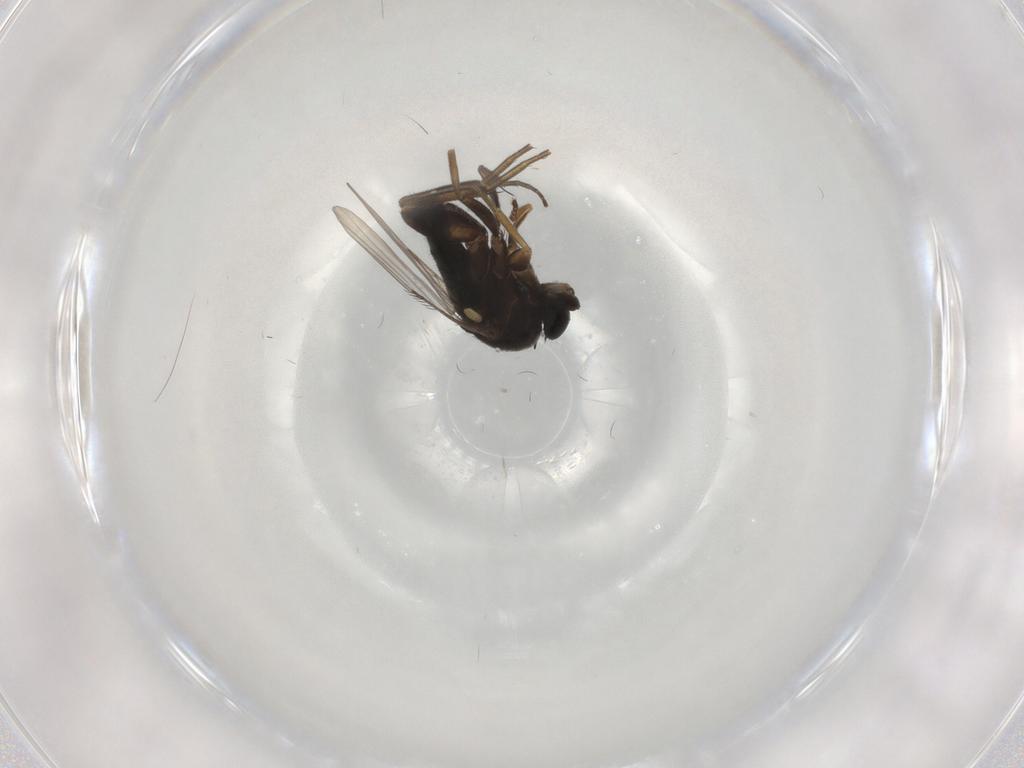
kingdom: Animalia
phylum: Arthropoda
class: Insecta
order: Diptera
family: Phoridae
